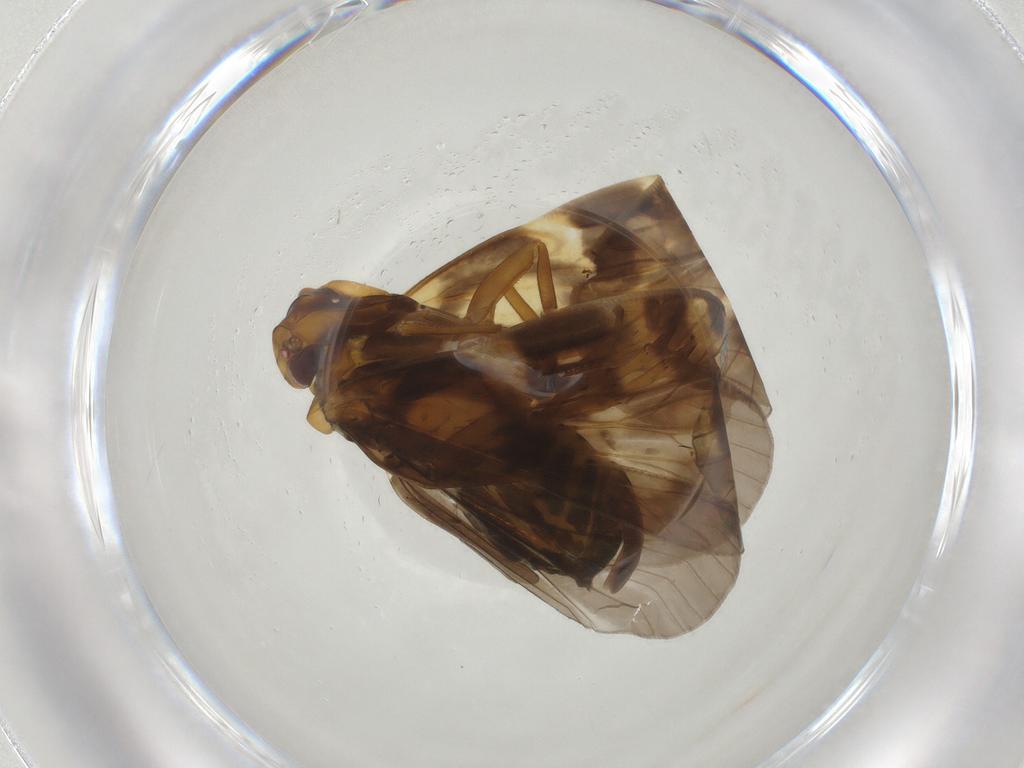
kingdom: Animalia
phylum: Arthropoda
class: Insecta
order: Hemiptera
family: Cixiidae
